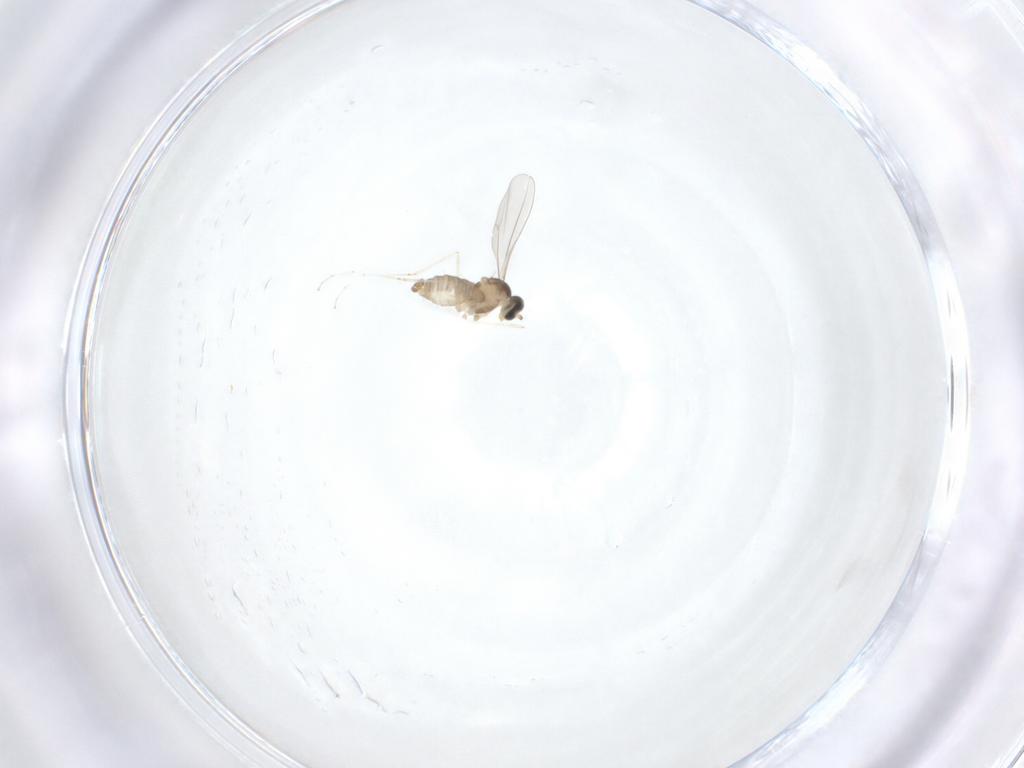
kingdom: Animalia
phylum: Arthropoda
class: Insecta
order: Diptera
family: Cecidomyiidae
